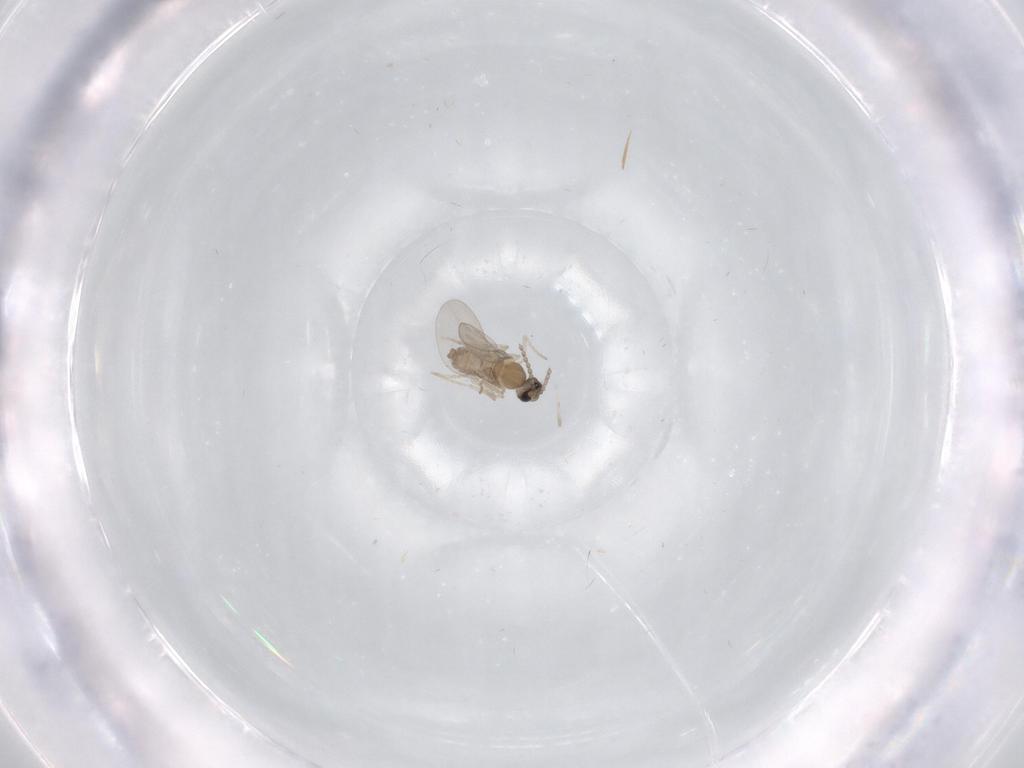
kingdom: Animalia
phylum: Arthropoda
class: Insecta
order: Diptera
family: Cecidomyiidae
